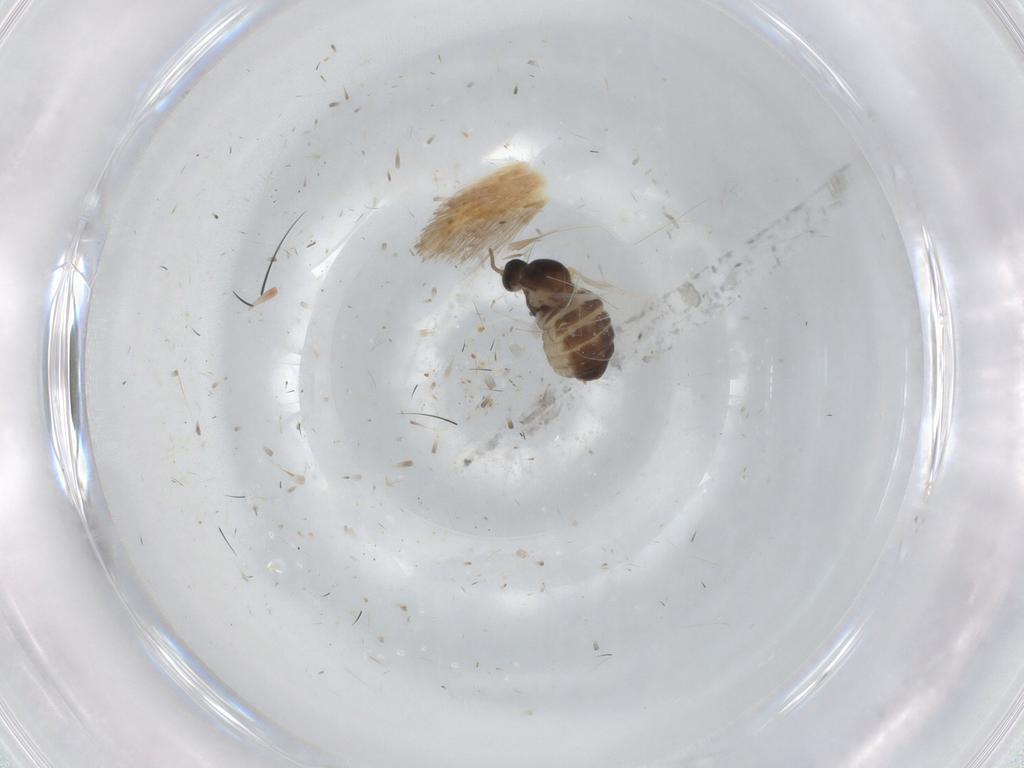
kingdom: Animalia
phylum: Arthropoda
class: Insecta
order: Diptera
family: Cecidomyiidae
